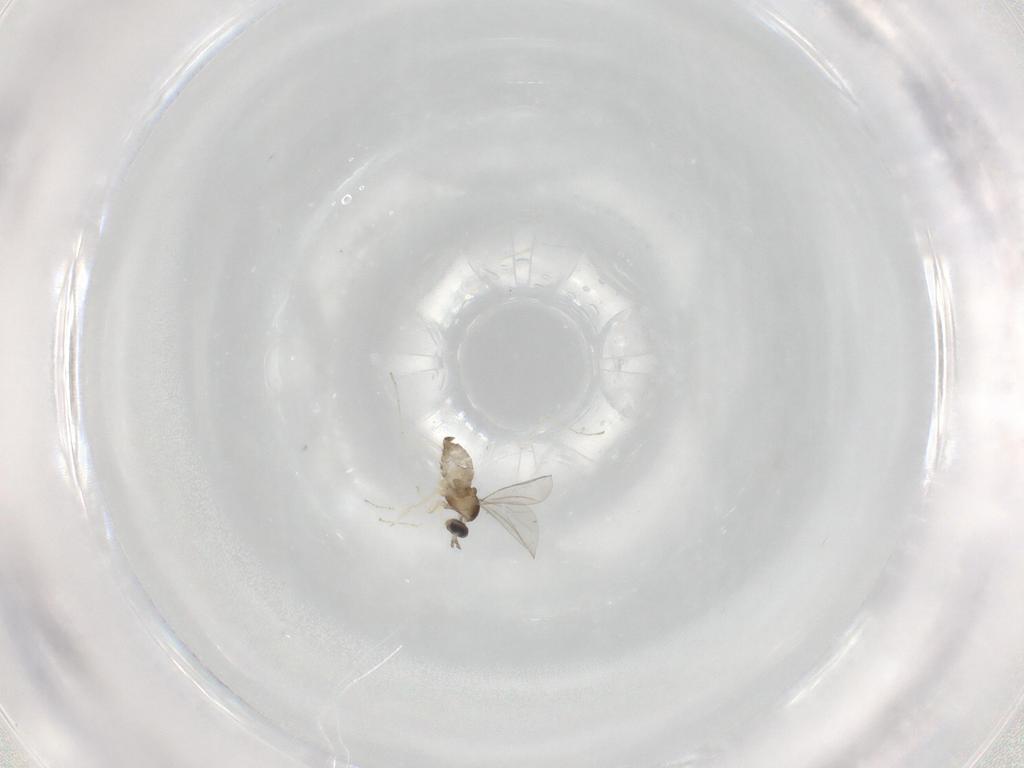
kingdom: Animalia
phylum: Arthropoda
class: Insecta
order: Diptera
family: Cecidomyiidae
